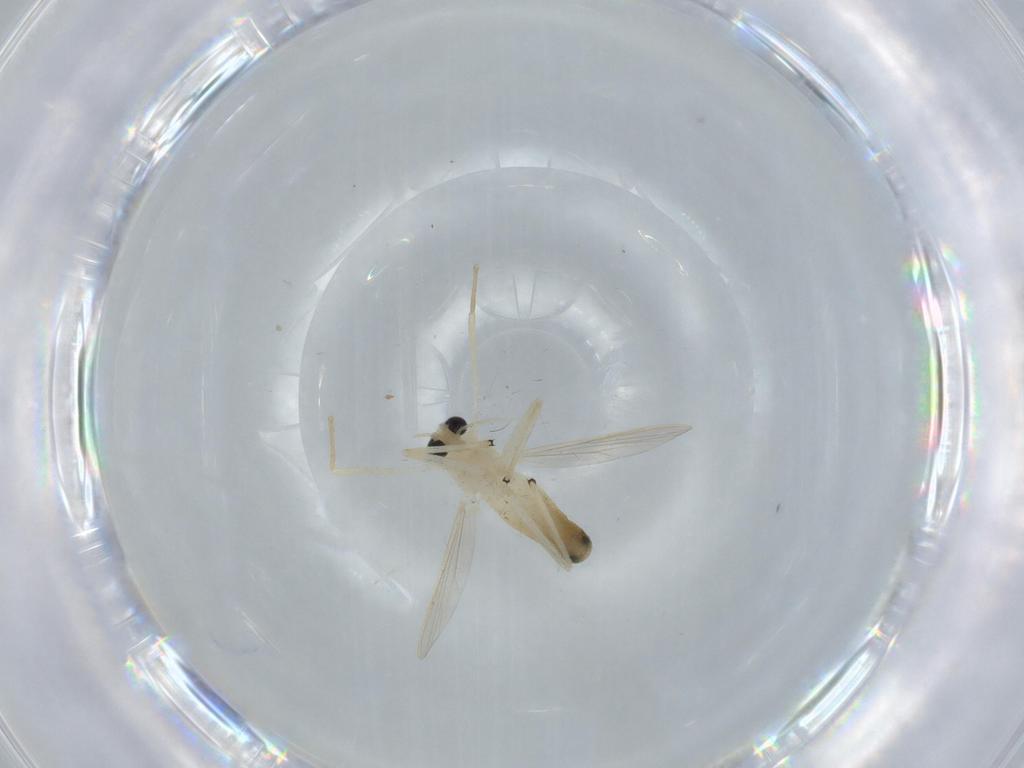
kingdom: Animalia
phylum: Arthropoda
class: Insecta
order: Diptera
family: Chironomidae
